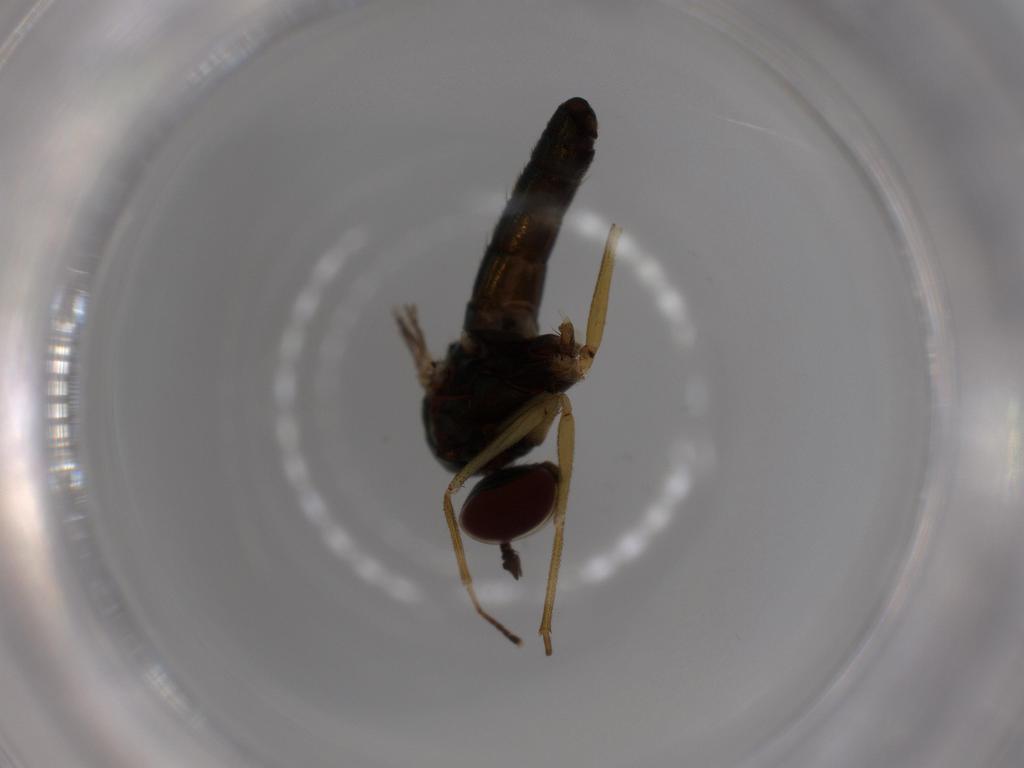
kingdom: Animalia
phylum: Arthropoda
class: Insecta
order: Diptera
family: Dolichopodidae
